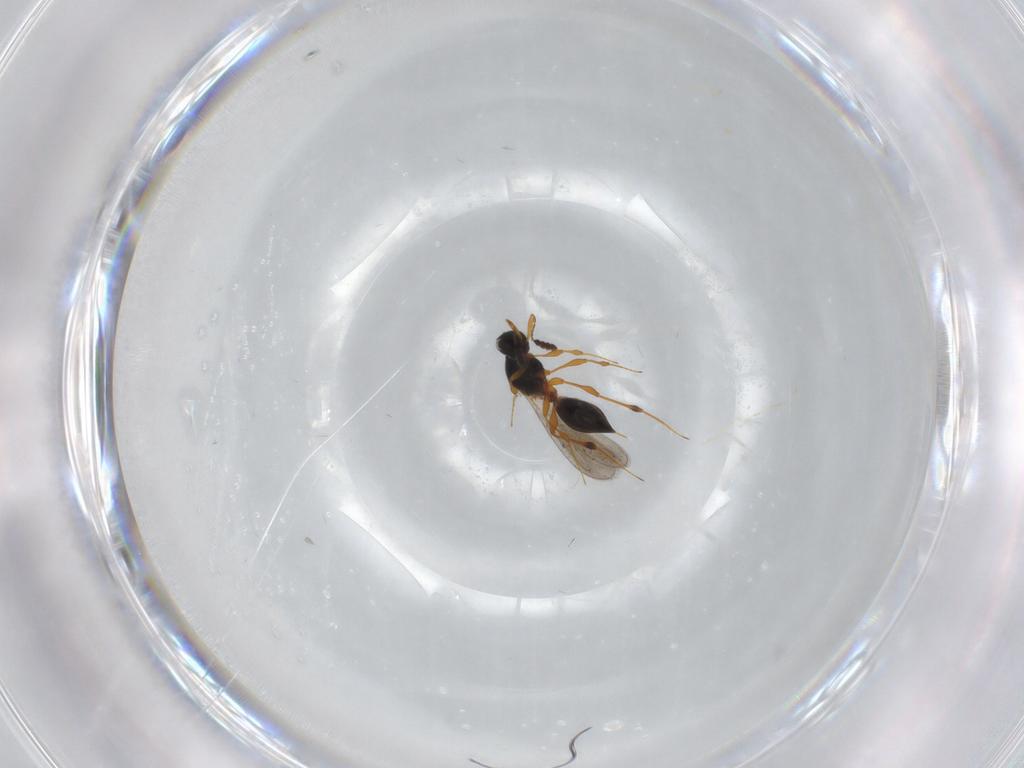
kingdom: Animalia
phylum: Arthropoda
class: Insecta
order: Hymenoptera
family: Platygastridae
